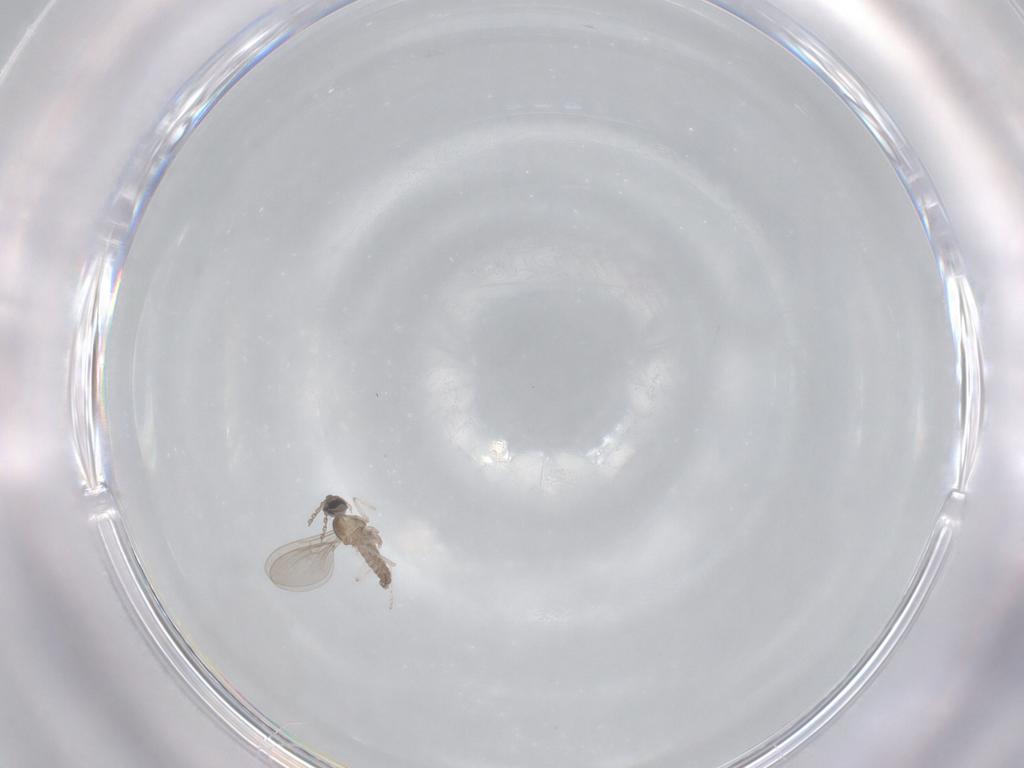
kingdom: Animalia
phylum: Arthropoda
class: Insecta
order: Diptera
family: Cecidomyiidae
